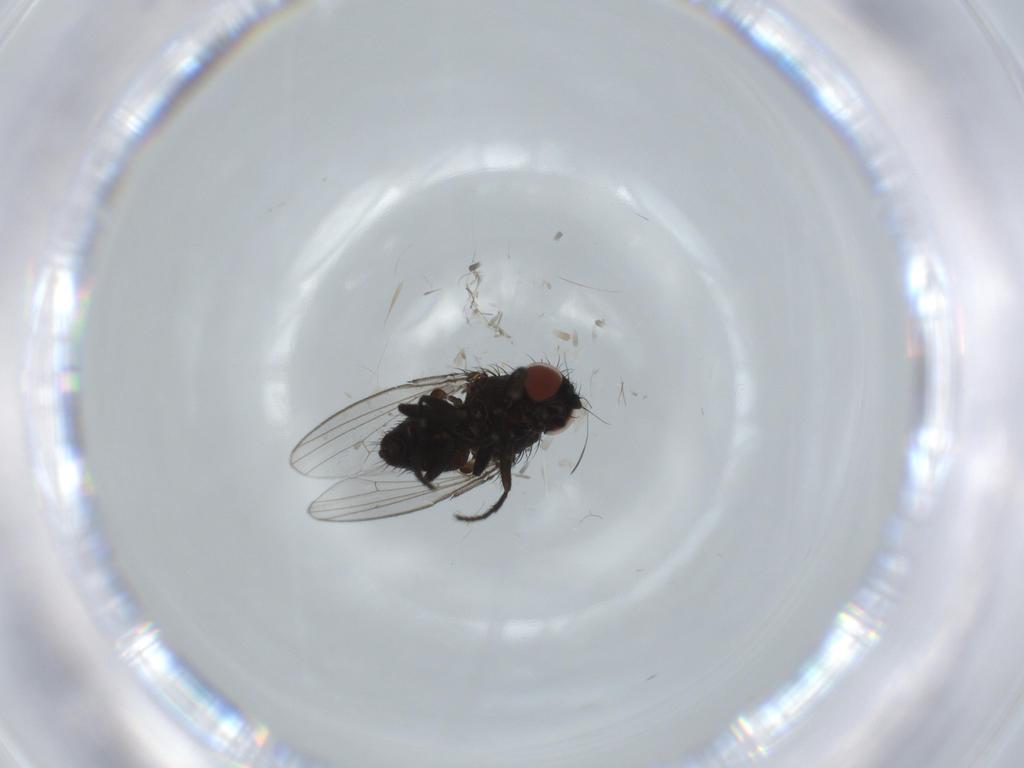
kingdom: Animalia
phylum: Arthropoda
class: Insecta
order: Diptera
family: Milichiidae
